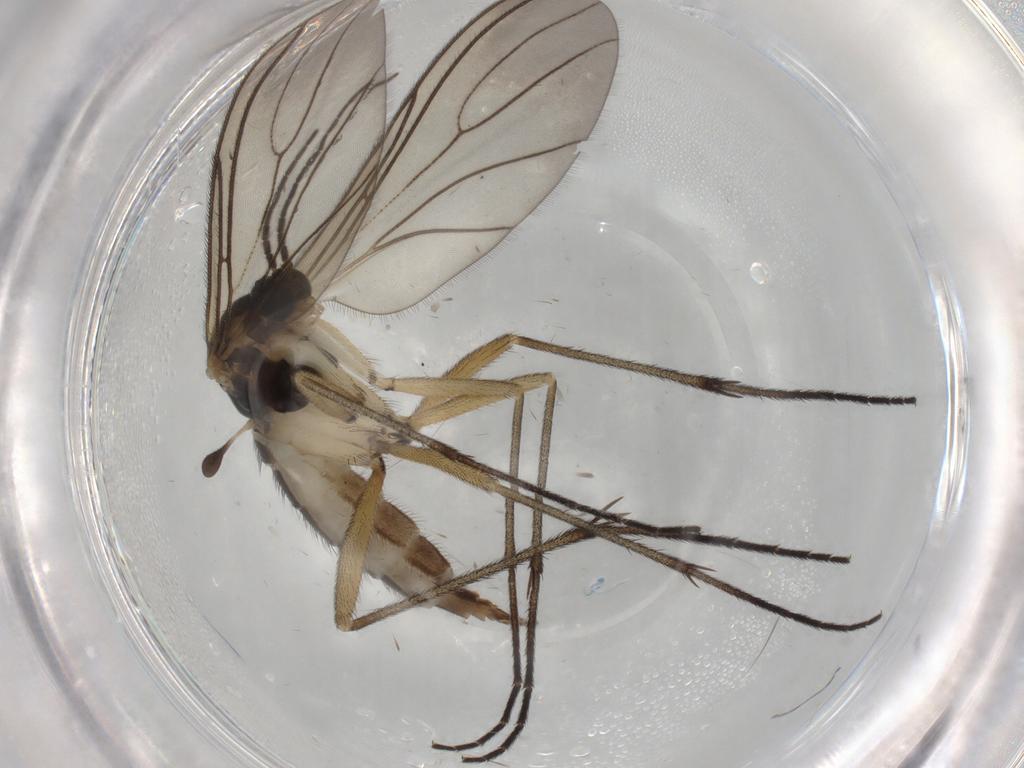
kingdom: Animalia
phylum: Arthropoda
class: Insecta
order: Diptera
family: Sciaridae
